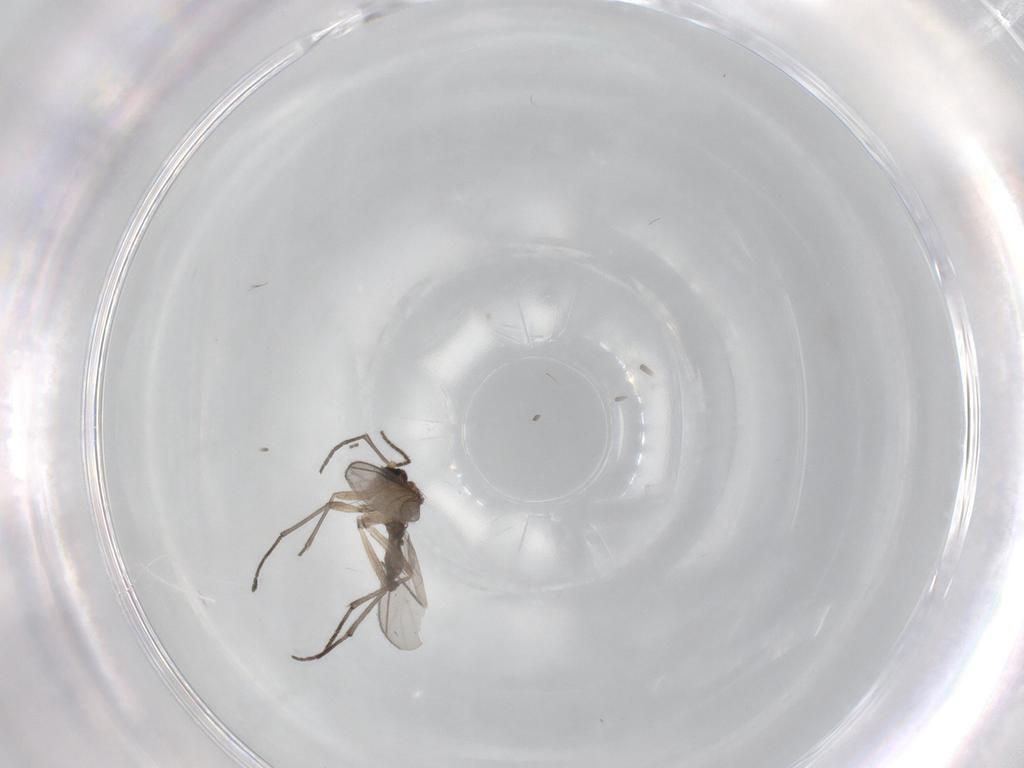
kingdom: Animalia
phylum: Arthropoda
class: Insecta
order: Diptera
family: Sciaridae
